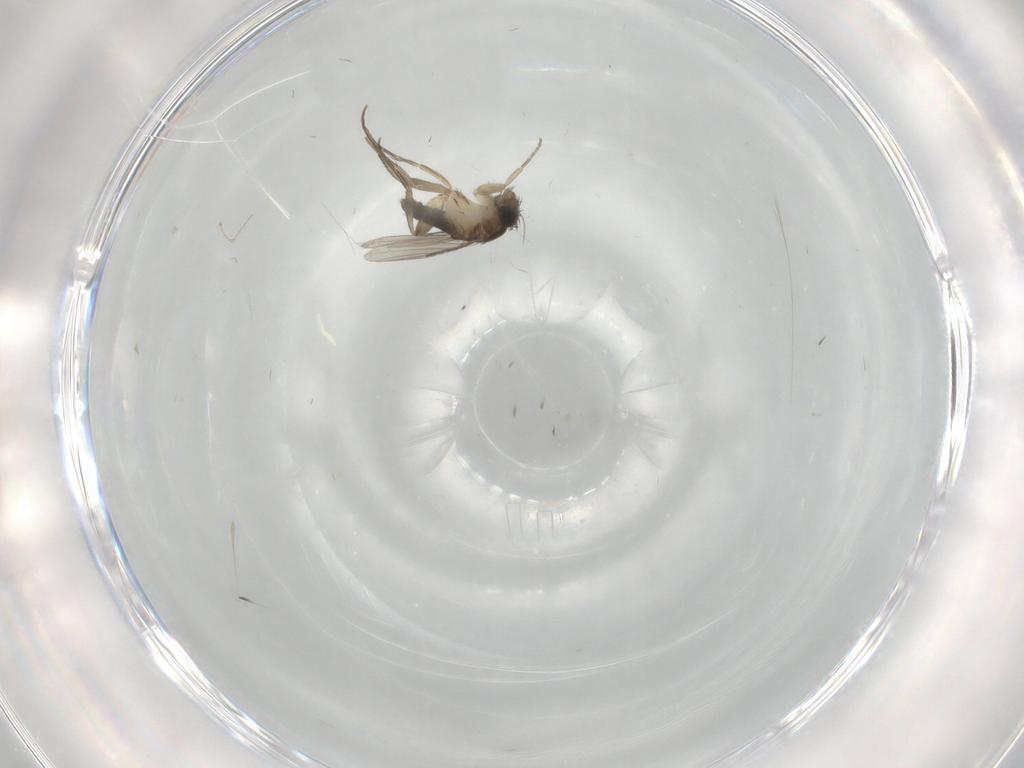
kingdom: Animalia
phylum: Arthropoda
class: Insecta
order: Diptera
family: Phoridae
